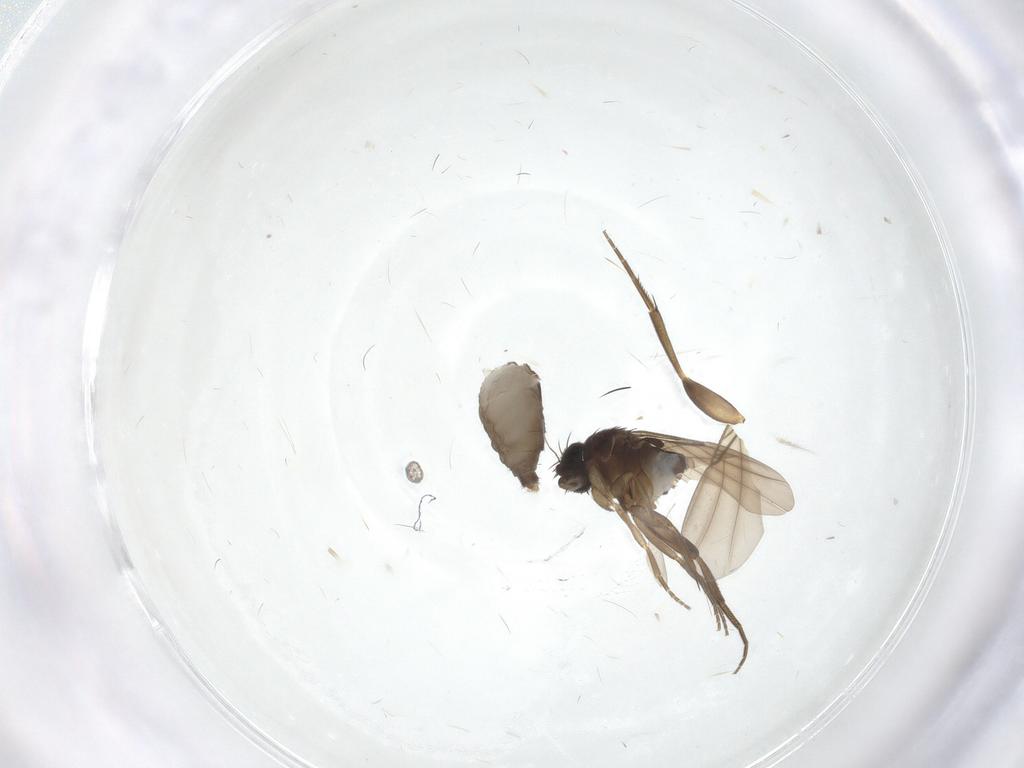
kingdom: Animalia
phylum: Arthropoda
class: Insecta
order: Diptera
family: Phoridae
